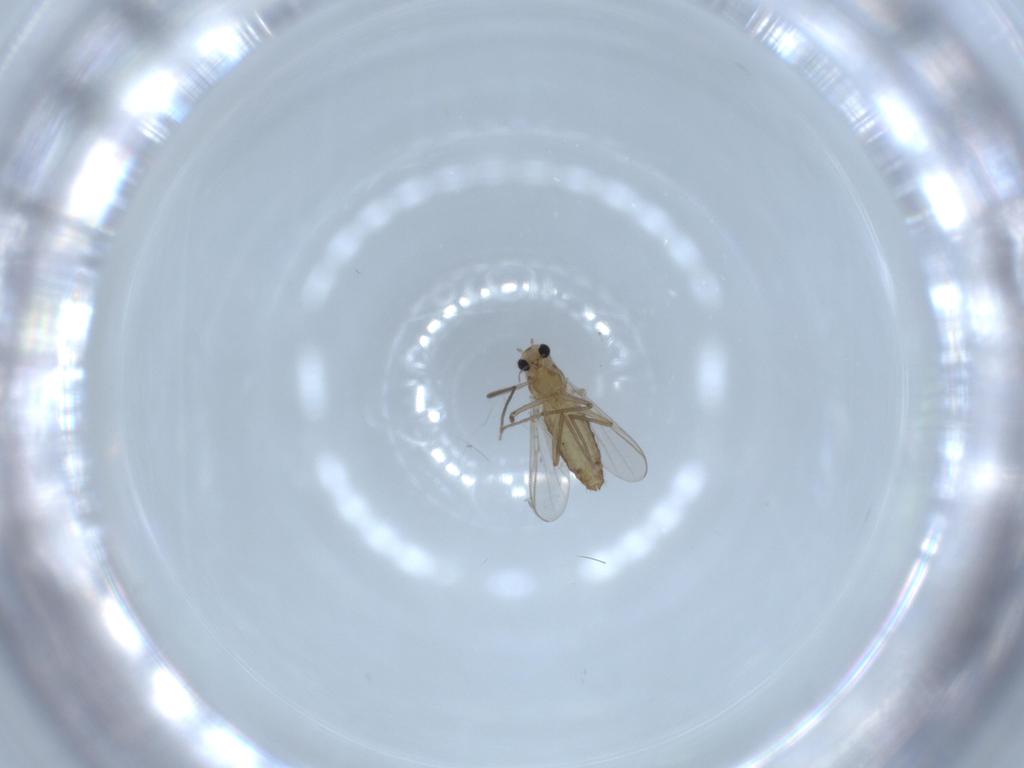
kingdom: Animalia
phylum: Arthropoda
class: Insecta
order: Diptera
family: Chironomidae
